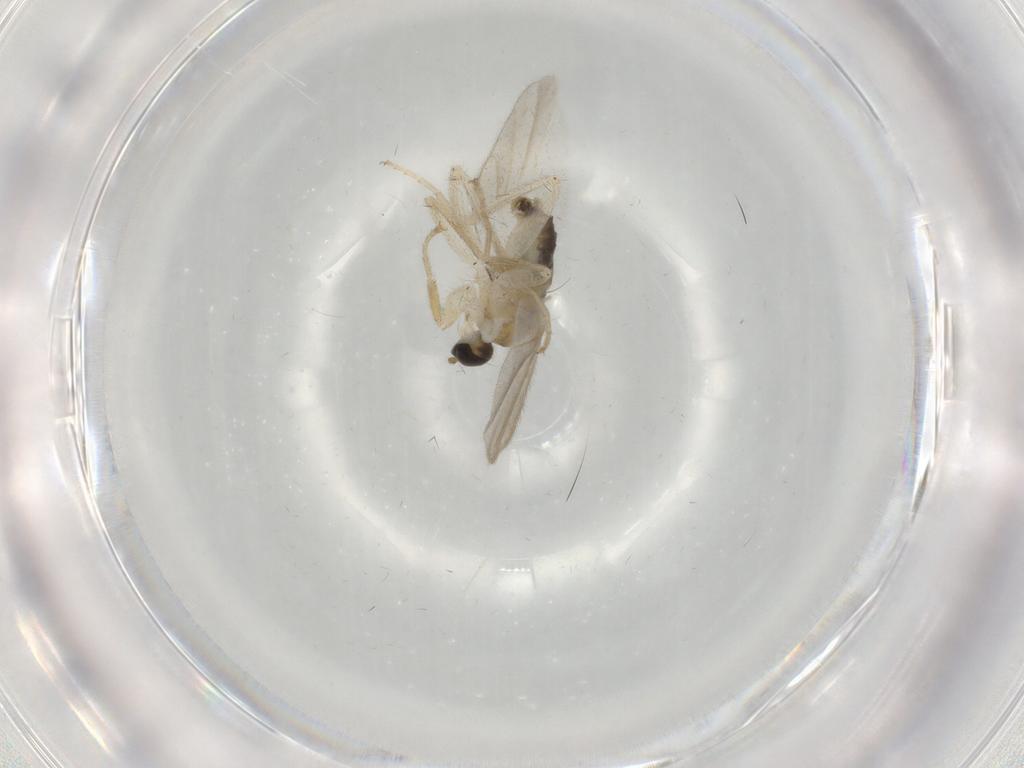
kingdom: Animalia
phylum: Arthropoda
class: Insecta
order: Diptera
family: Hybotidae
